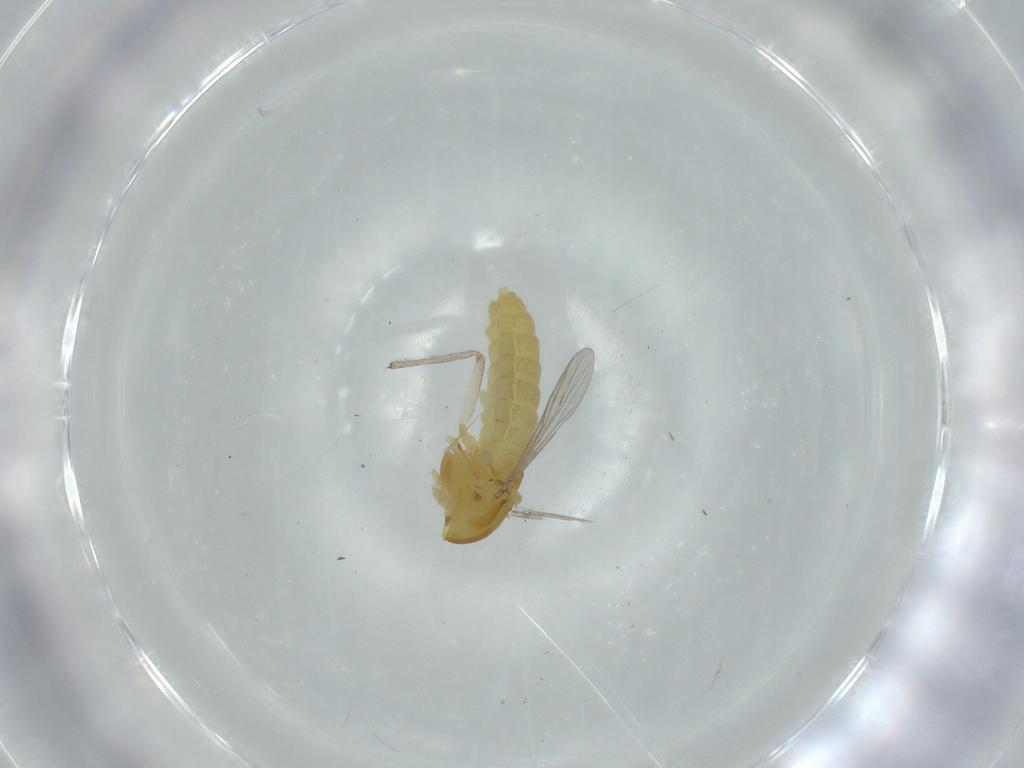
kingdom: Animalia
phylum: Arthropoda
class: Insecta
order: Diptera
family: Chironomidae
